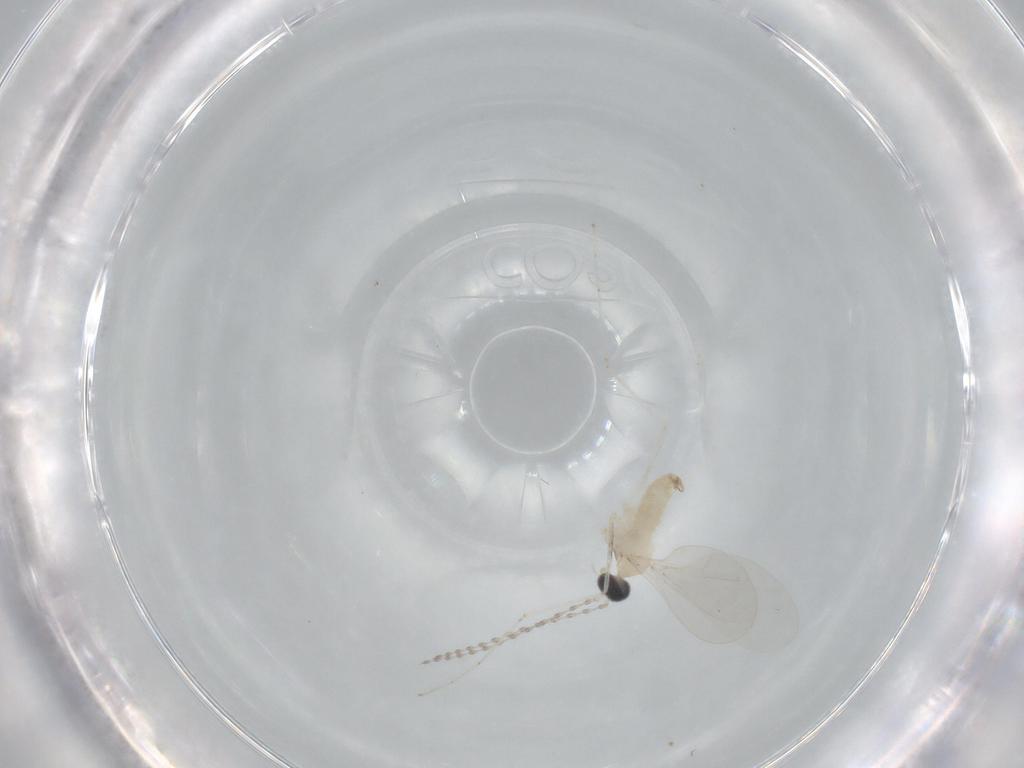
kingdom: Animalia
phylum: Arthropoda
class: Insecta
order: Diptera
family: Cecidomyiidae
